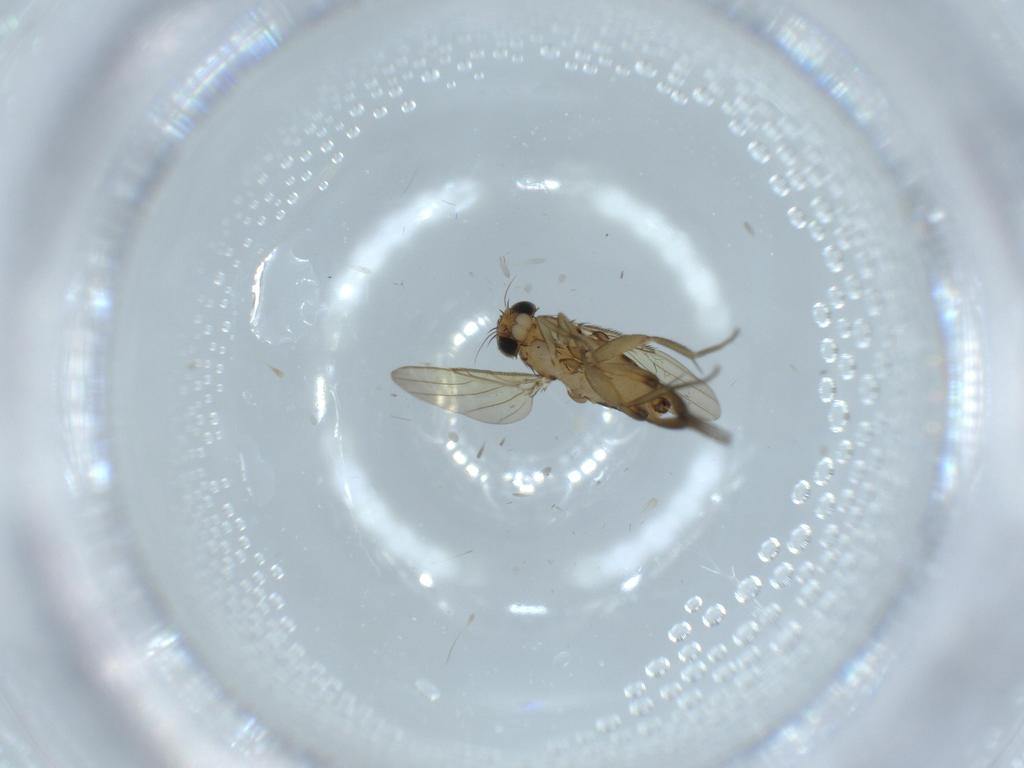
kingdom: Animalia
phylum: Arthropoda
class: Insecta
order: Diptera
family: Phoridae
